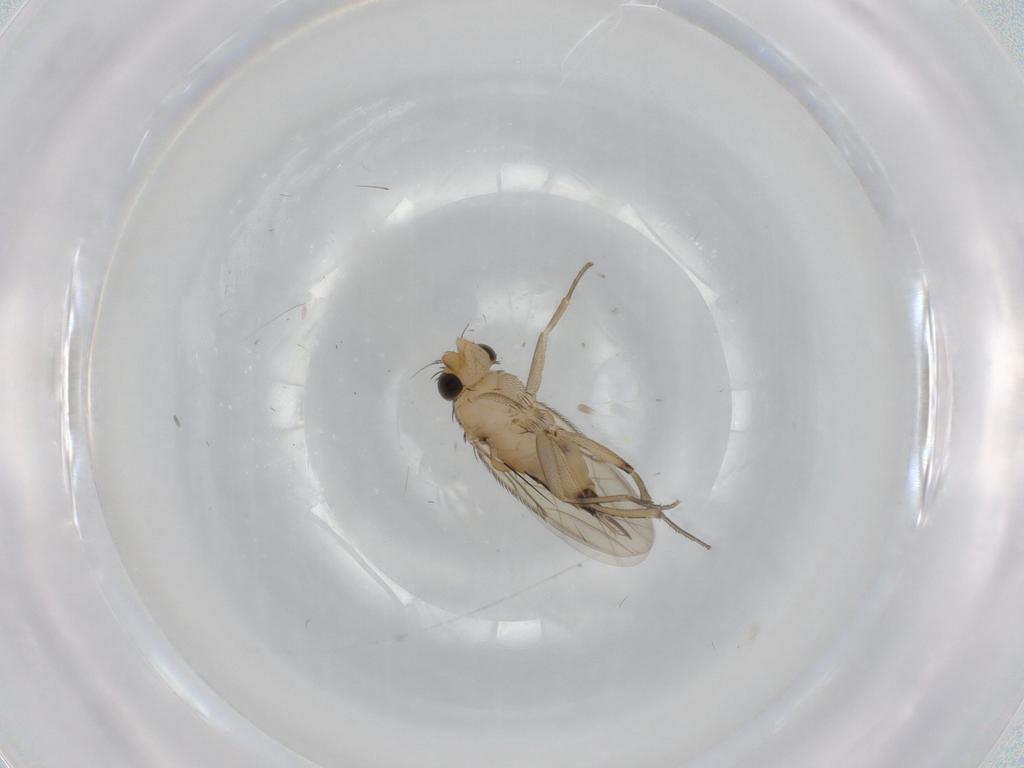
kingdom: Animalia
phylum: Arthropoda
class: Insecta
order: Diptera
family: Phoridae
